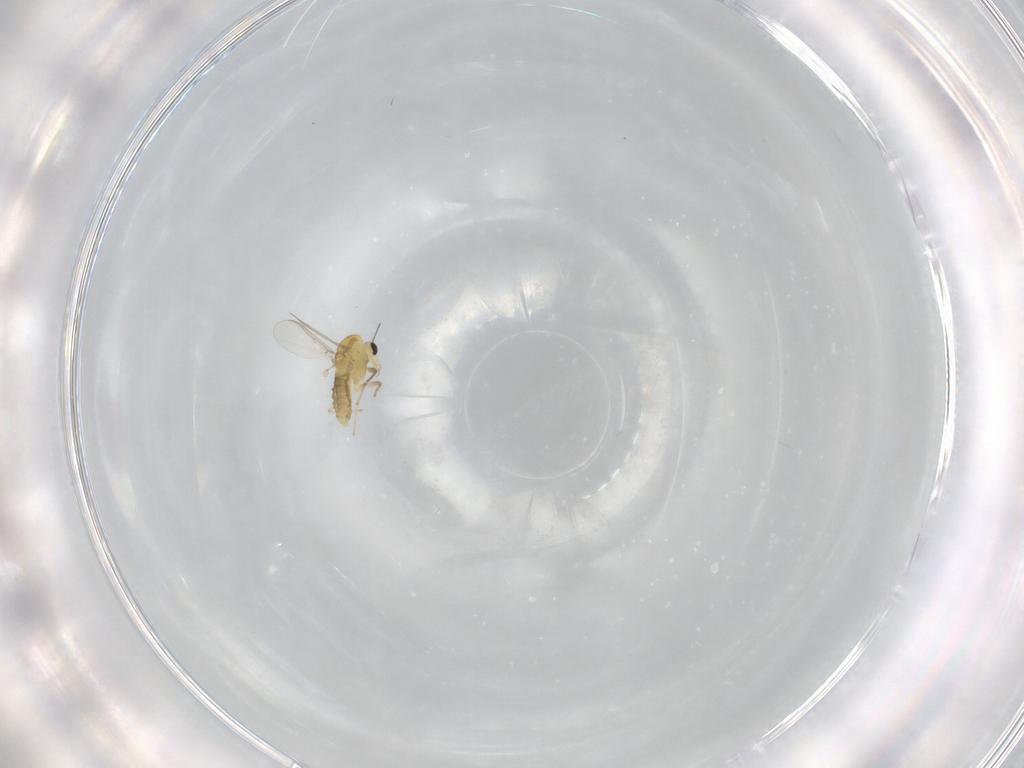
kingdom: Animalia
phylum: Arthropoda
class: Insecta
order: Diptera
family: Chironomidae
